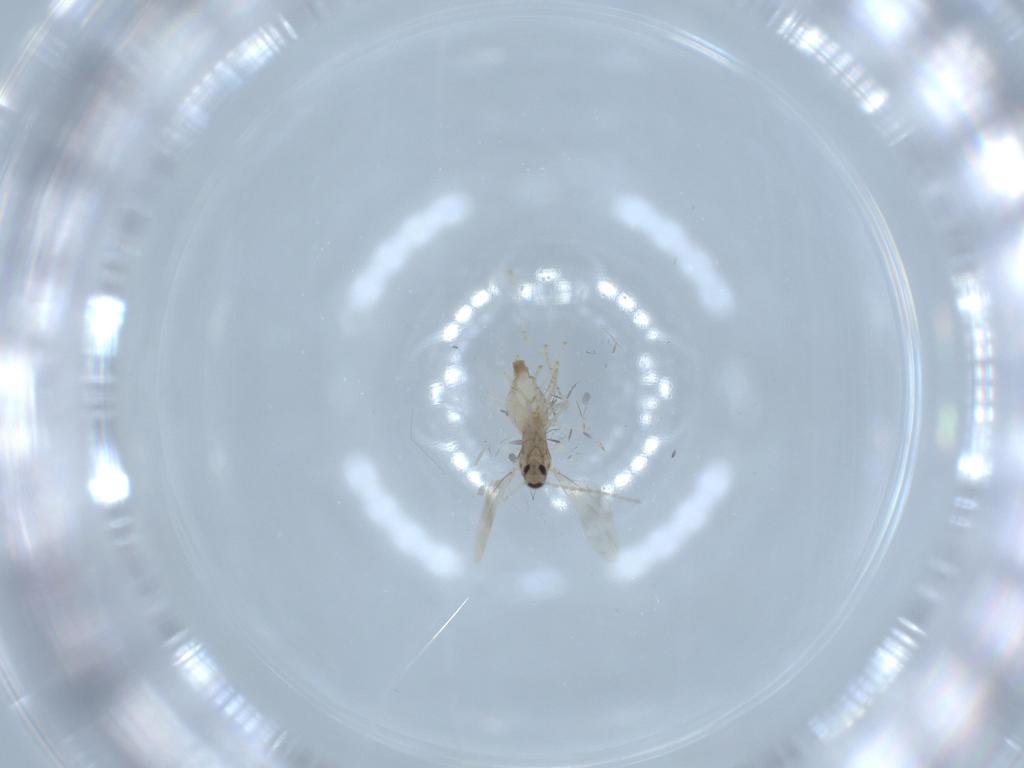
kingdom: Animalia
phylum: Arthropoda
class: Insecta
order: Diptera
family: Cecidomyiidae
